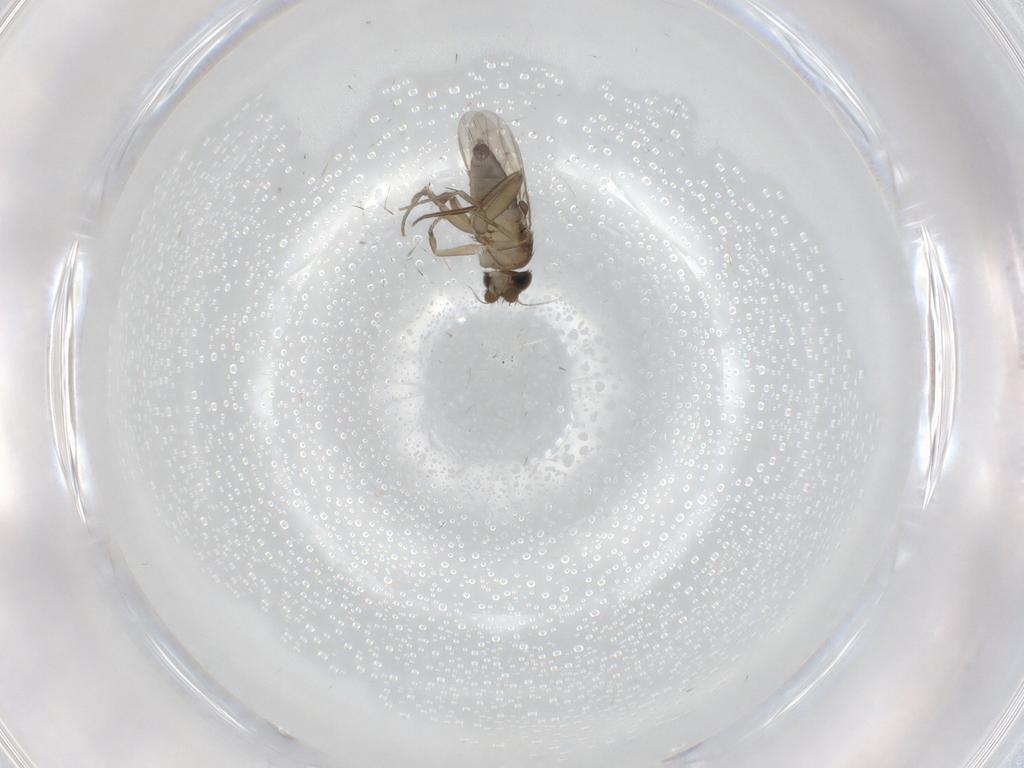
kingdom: Animalia
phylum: Arthropoda
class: Insecta
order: Diptera
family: Phoridae
